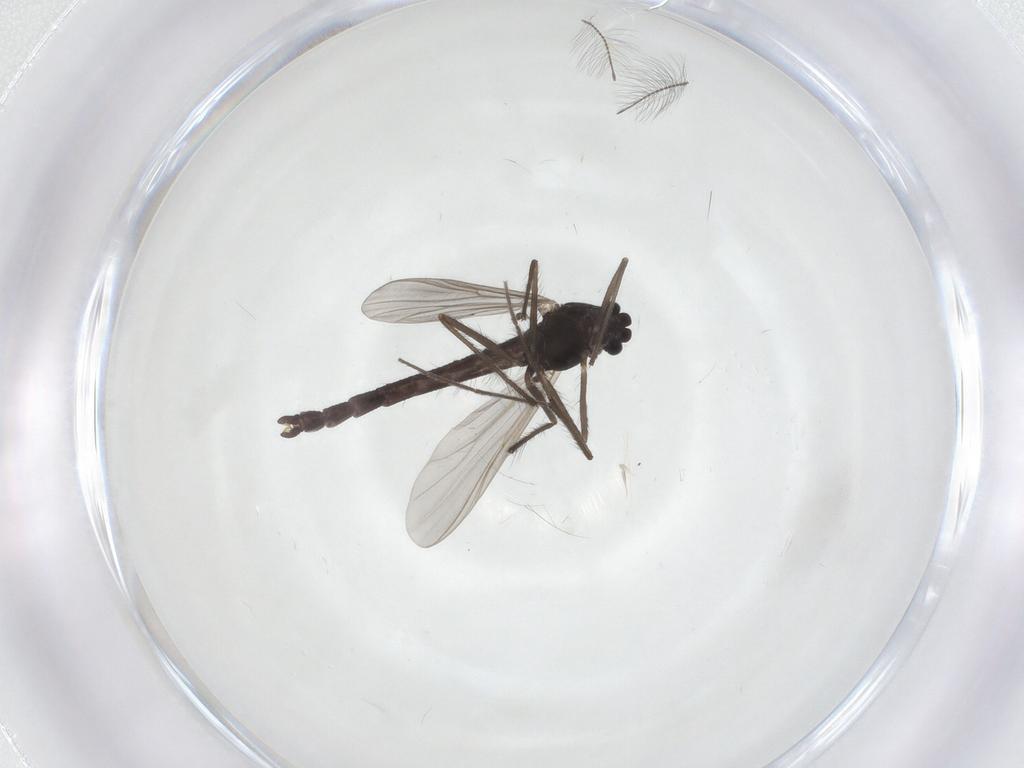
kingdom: Animalia
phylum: Arthropoda
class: Insecta
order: Diptera
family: Chironomidae
